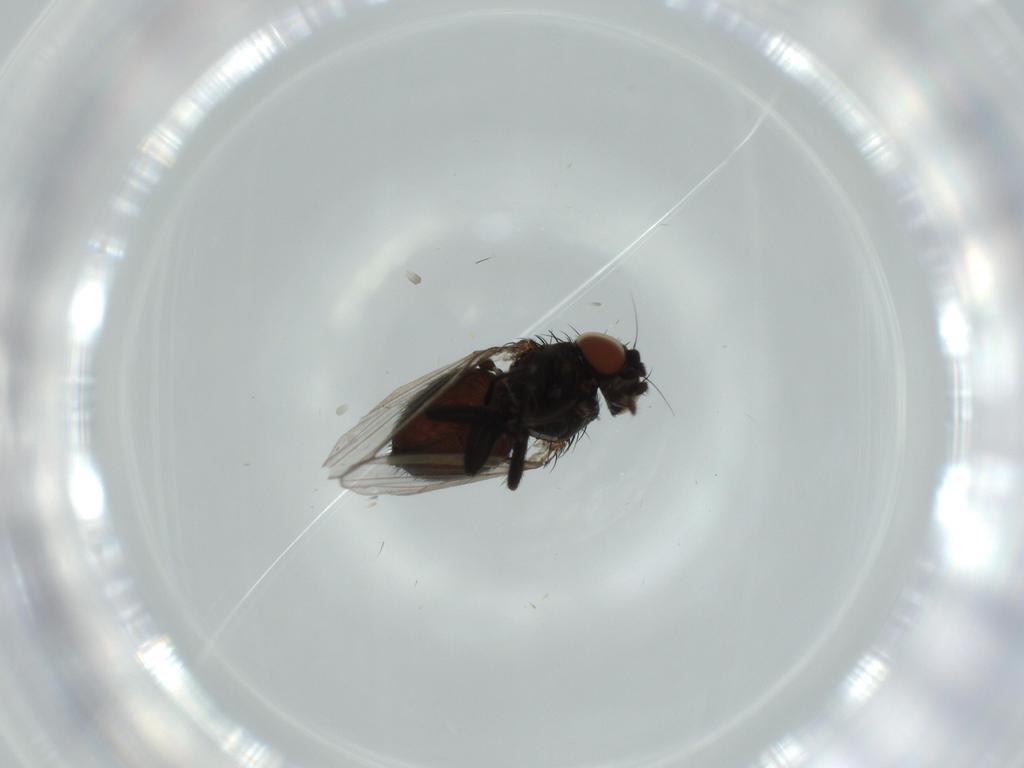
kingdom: Animalia
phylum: Arthropoda
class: Insecta
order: Diptera
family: Milichiidae
